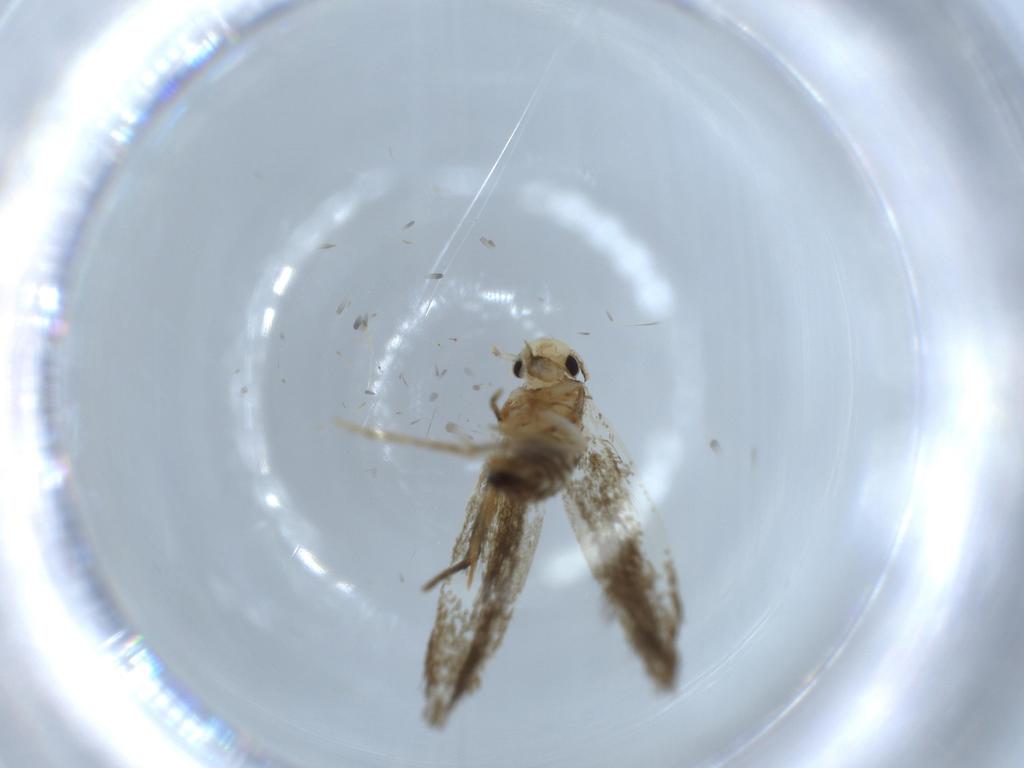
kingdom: Animalia
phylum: Arthropoda
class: Insecta
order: Lepidoptera
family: Tineidae
